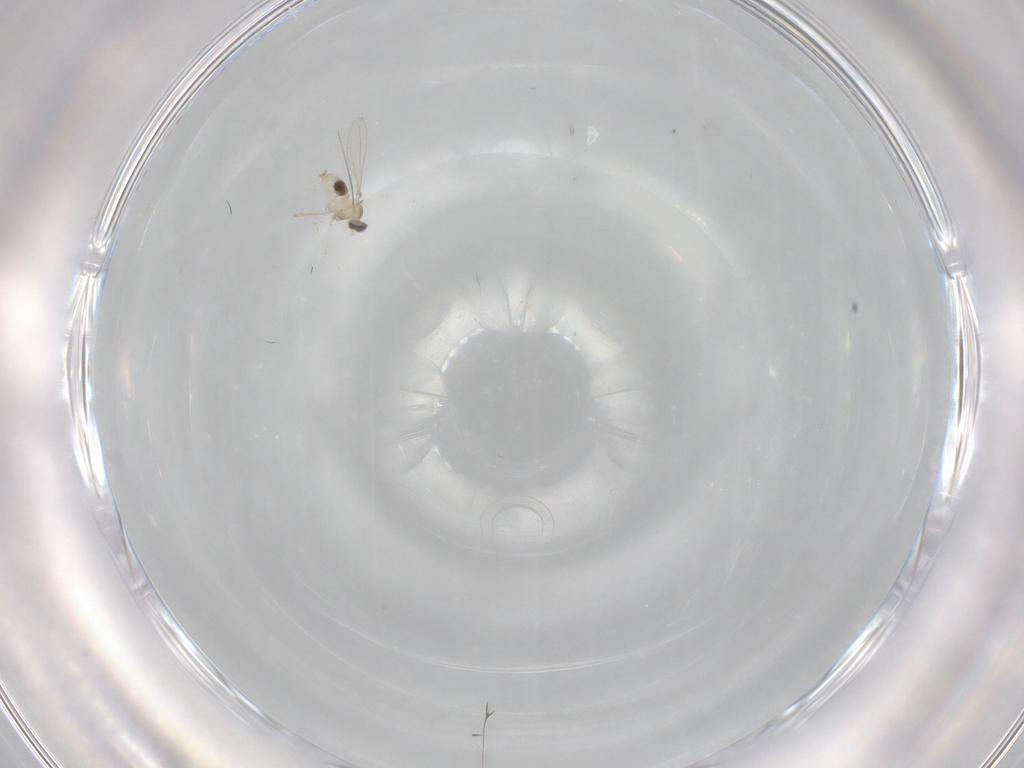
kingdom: Animalia
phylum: Arthropoda
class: Insecta
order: Diptera
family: Cecidomyiidae
